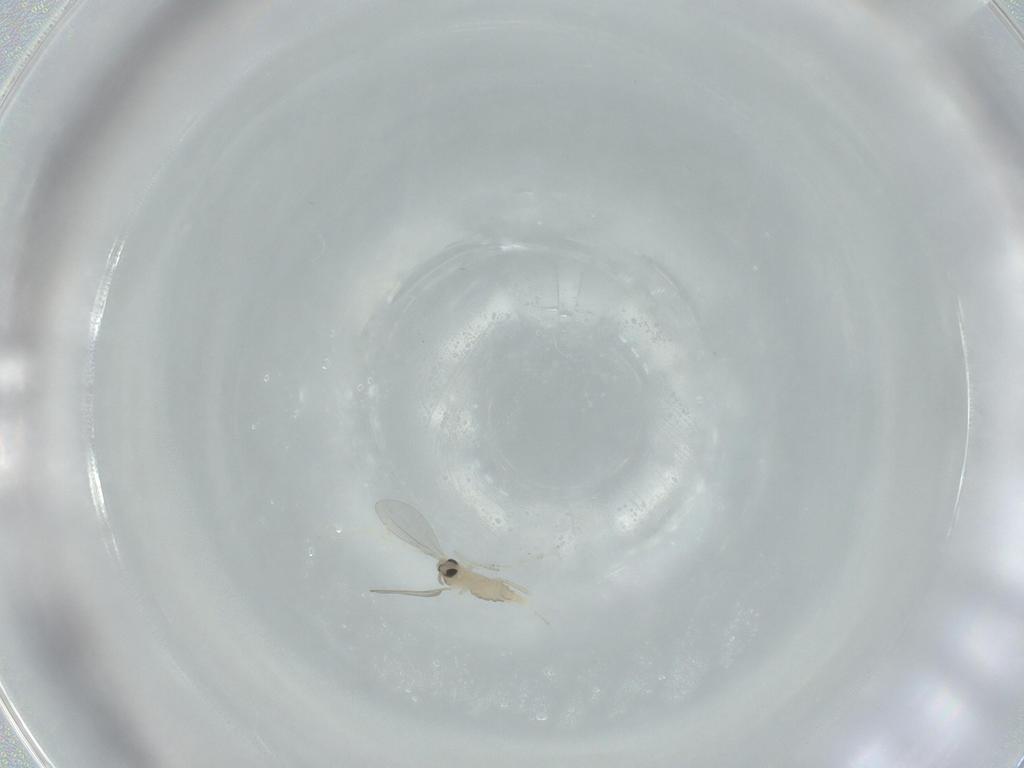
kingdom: Animalia
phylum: Arthropoda
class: Insecta
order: Diptera
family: Cecidomyiidae
